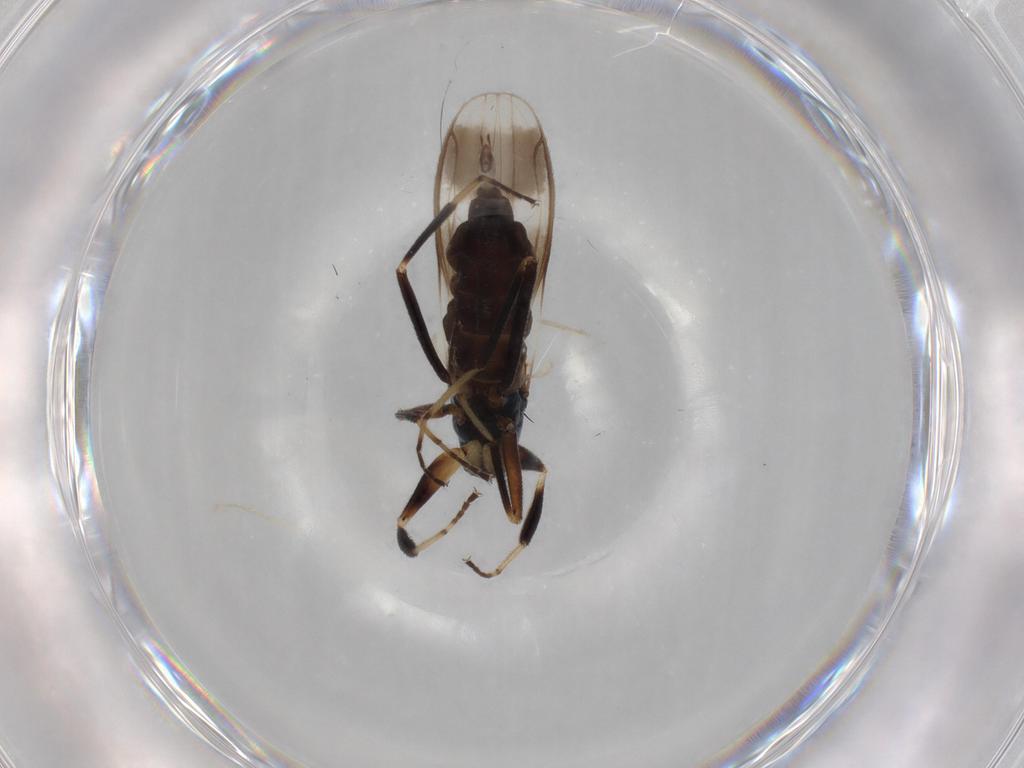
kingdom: Animalia
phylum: Arthropoda
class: Insecta
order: Diptera
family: Hybotidae
